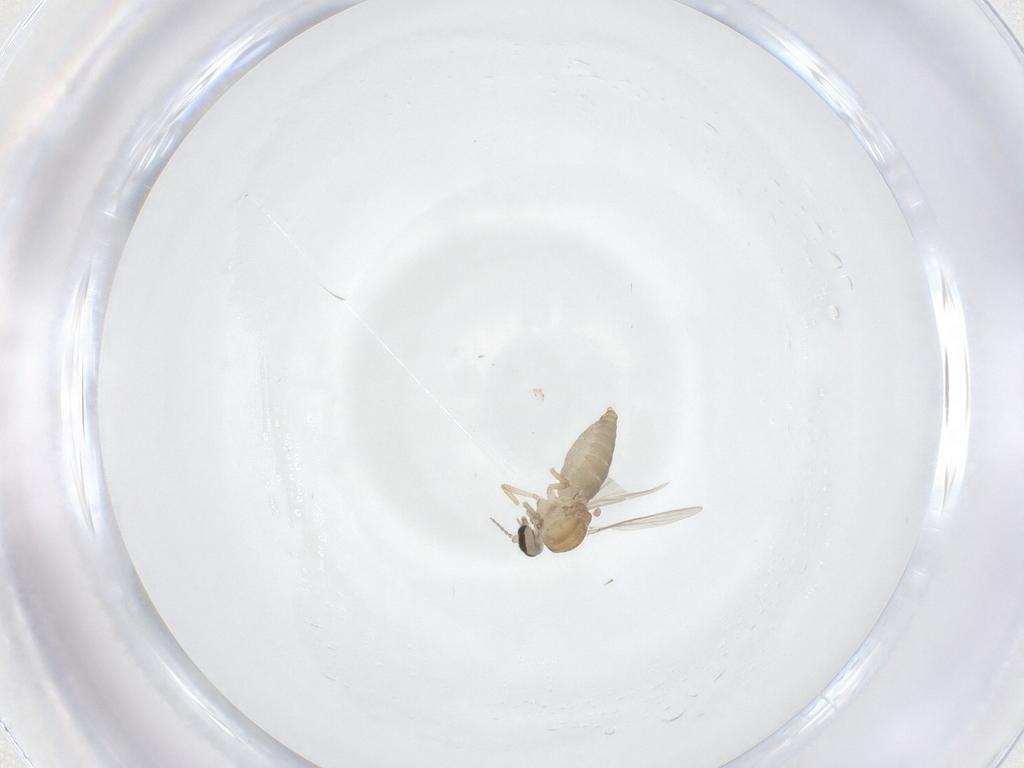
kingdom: Animalia
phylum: Arthropoda
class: Insecta
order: Diptera
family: Ceratopogonidae
